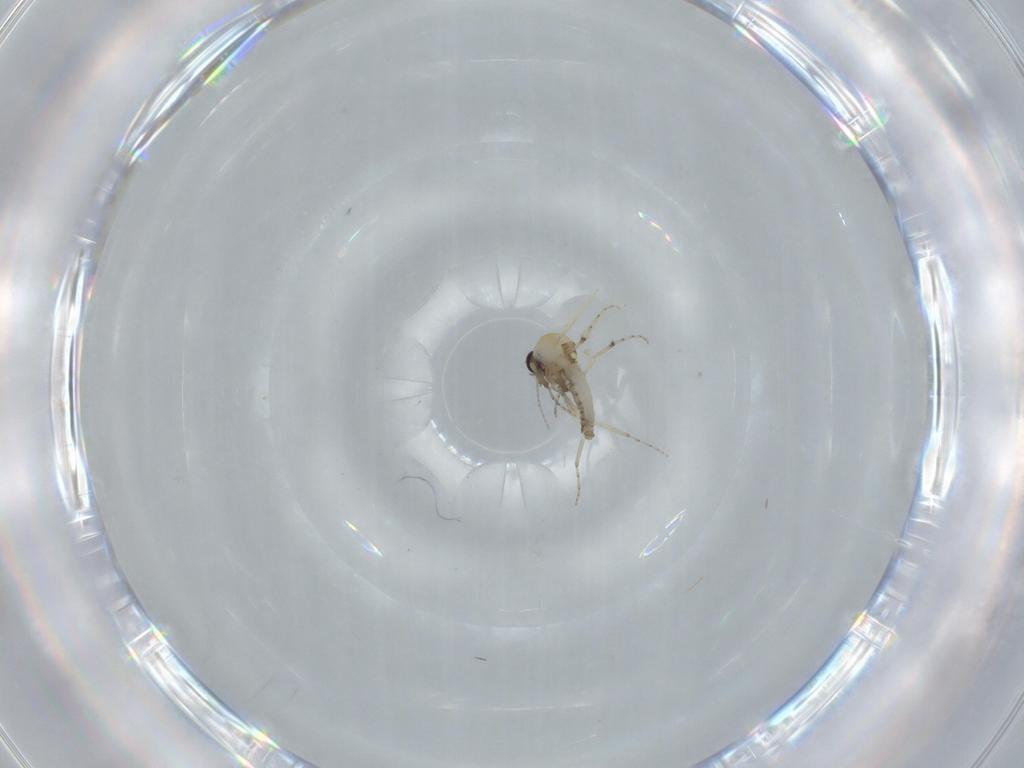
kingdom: Animalia
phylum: Arthropoda
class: Insecta
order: Diptera
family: Ceratopogonidae
